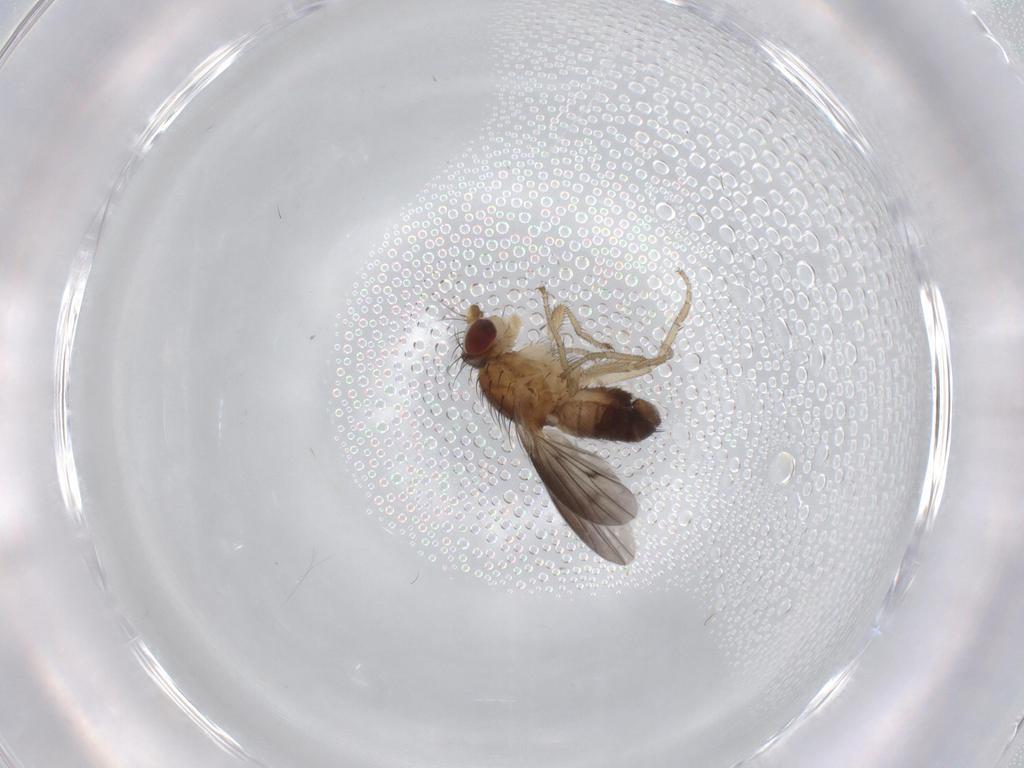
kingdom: Animalia
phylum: Arthropoda
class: Insecta
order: Diptera
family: Heleomyzidae
